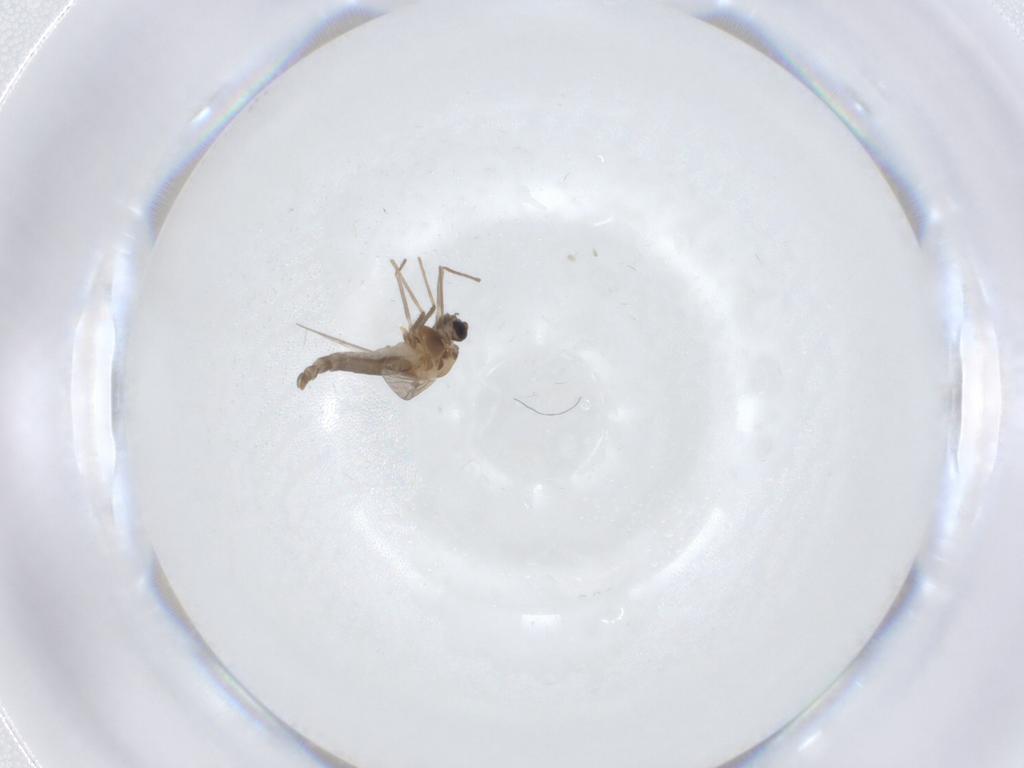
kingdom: Animalia
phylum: Arthropoda
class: Insecta
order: Diptera
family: Chironomidae
